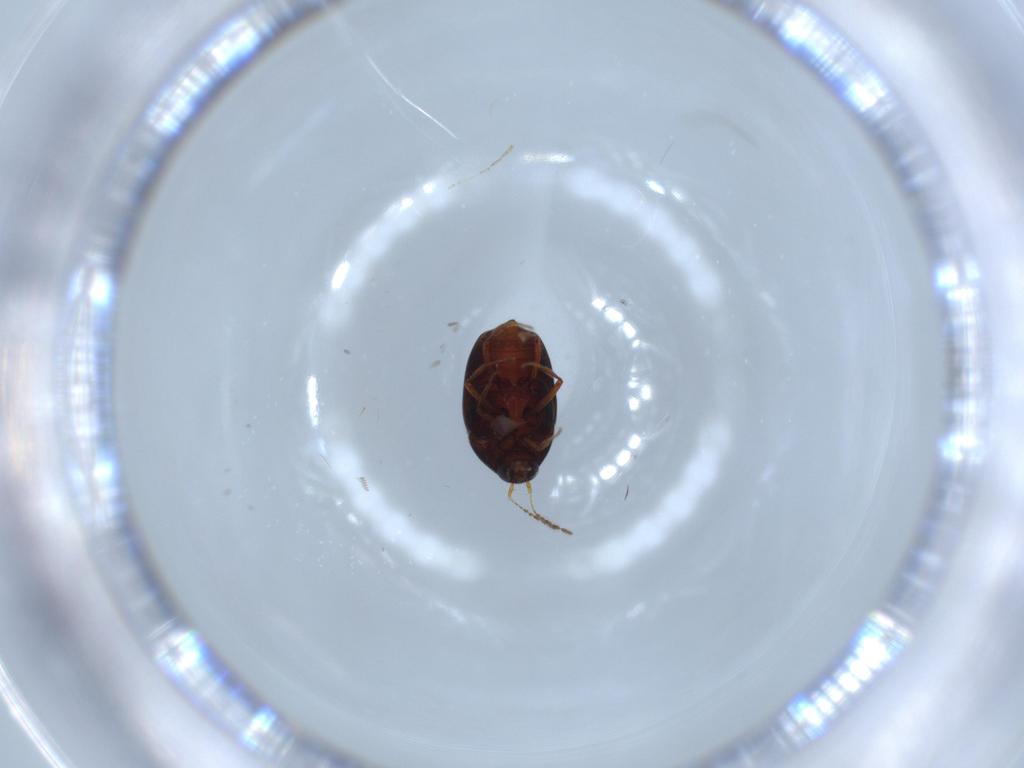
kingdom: Animalia
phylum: Arthropoda
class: Insecta
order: Coleoptera
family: Staphylinidae
